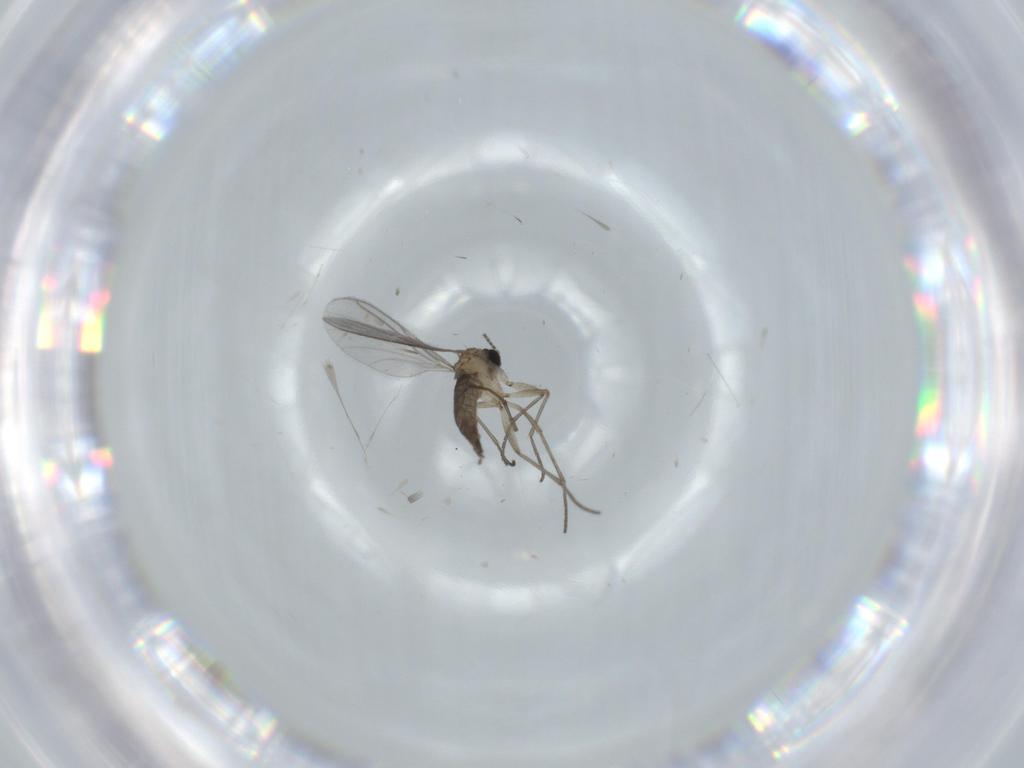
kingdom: Animalia
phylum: Arthropoda
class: Insecta
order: Diptera
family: Sciaridae
